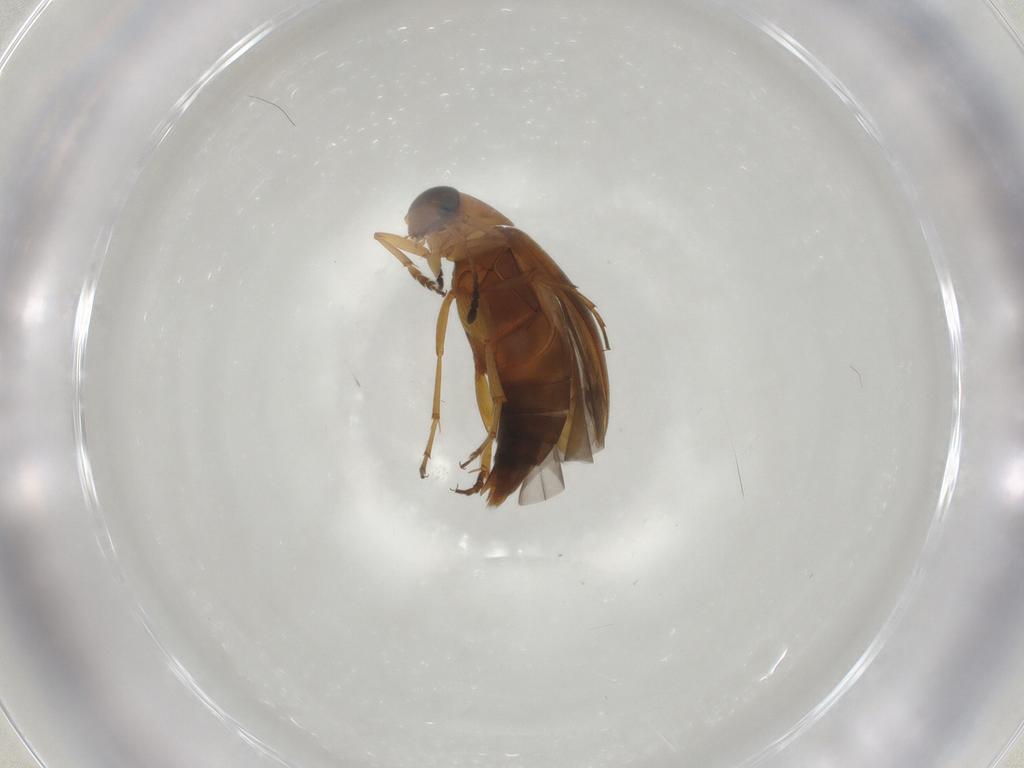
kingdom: Animalia
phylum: Arthropoda
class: Insecta
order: Coleoptera
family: Scraptiidae
